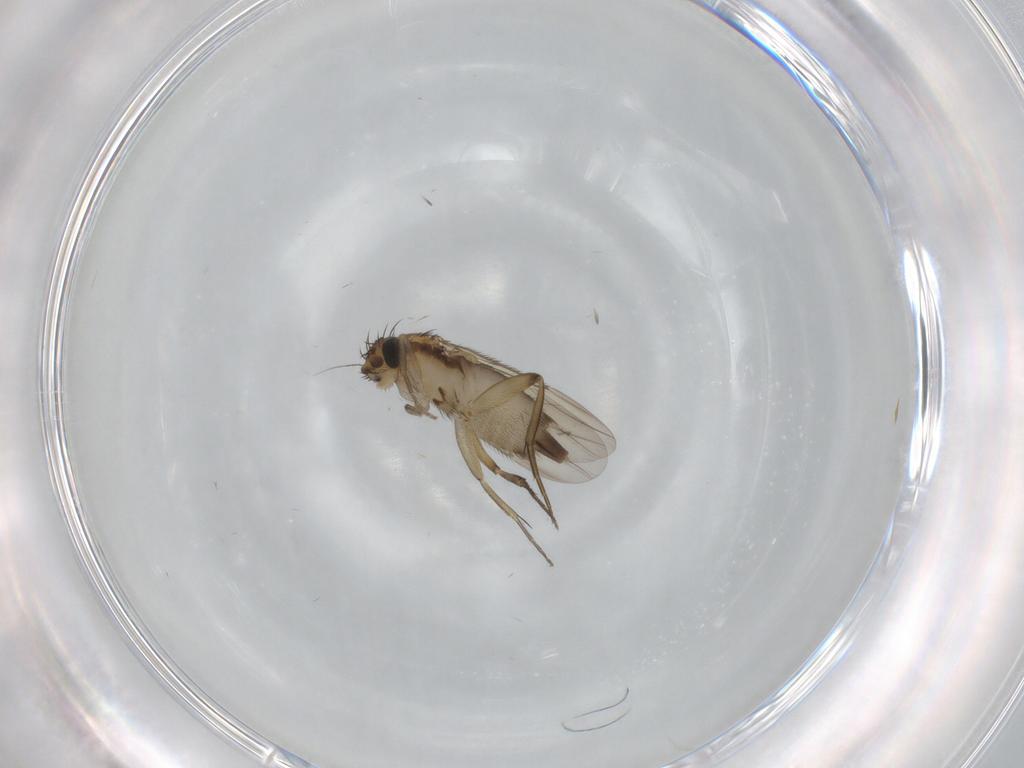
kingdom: Animalia
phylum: Arthropoda
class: Insecta
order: Diptera
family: Phoridae
